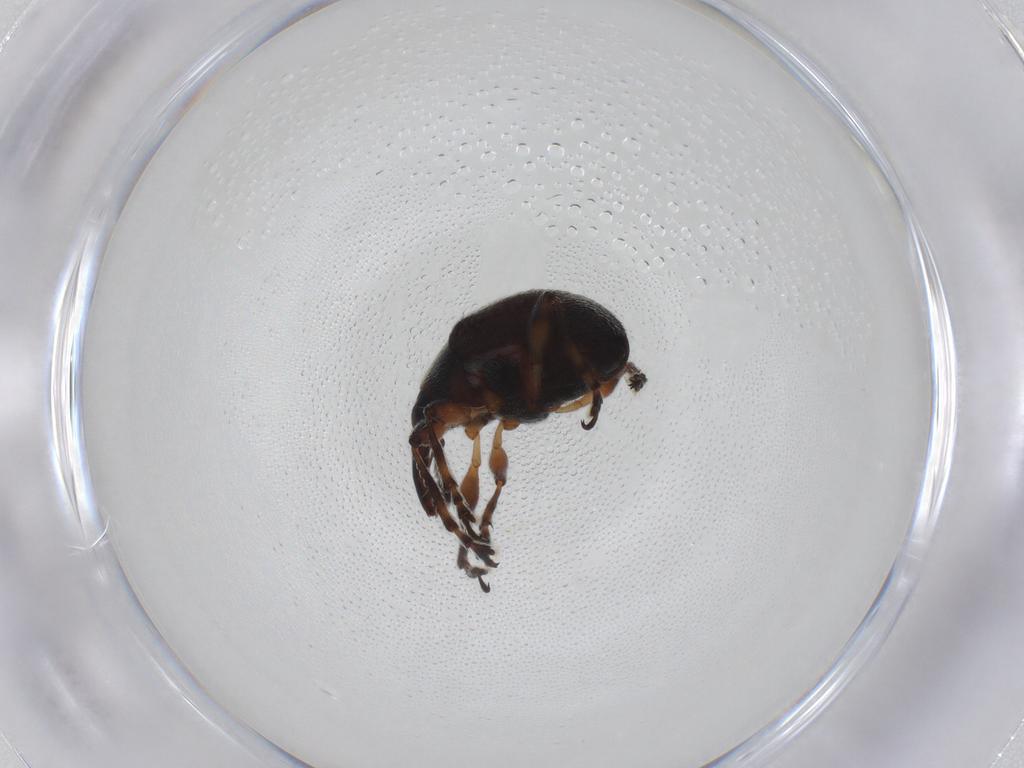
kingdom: Animalia
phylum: Arthropoda
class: Insecta
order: Coleoptera
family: Brentidae
